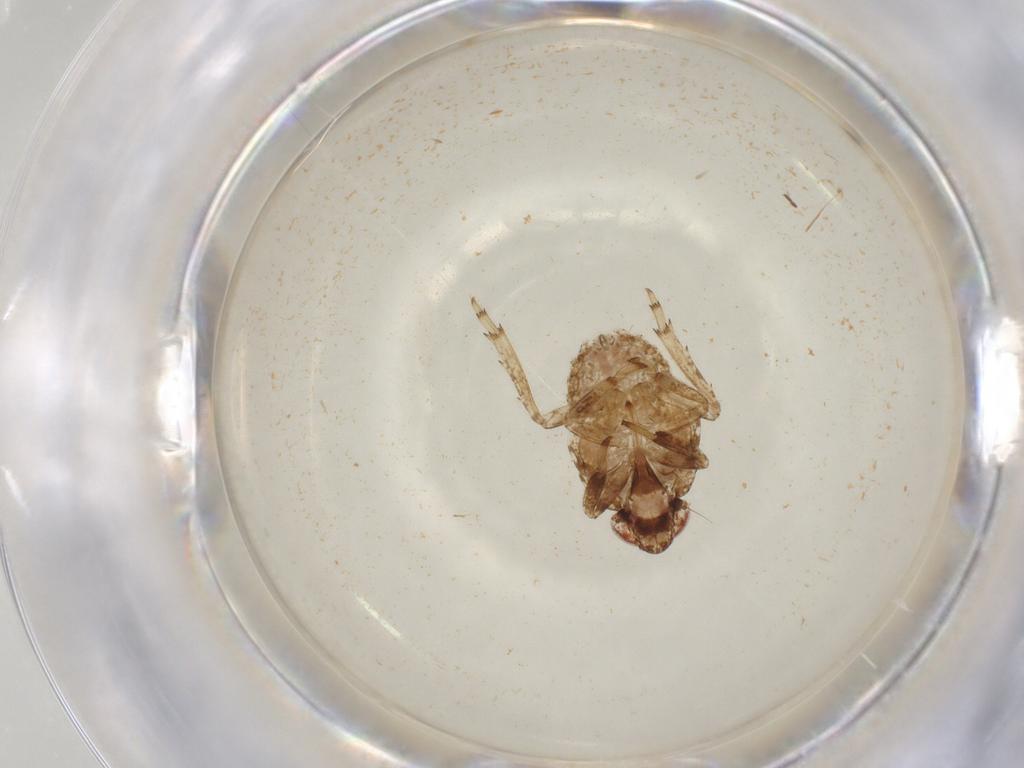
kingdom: Animalia
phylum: Arthropoda
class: Insecta
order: Hemiptera
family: Issidae
